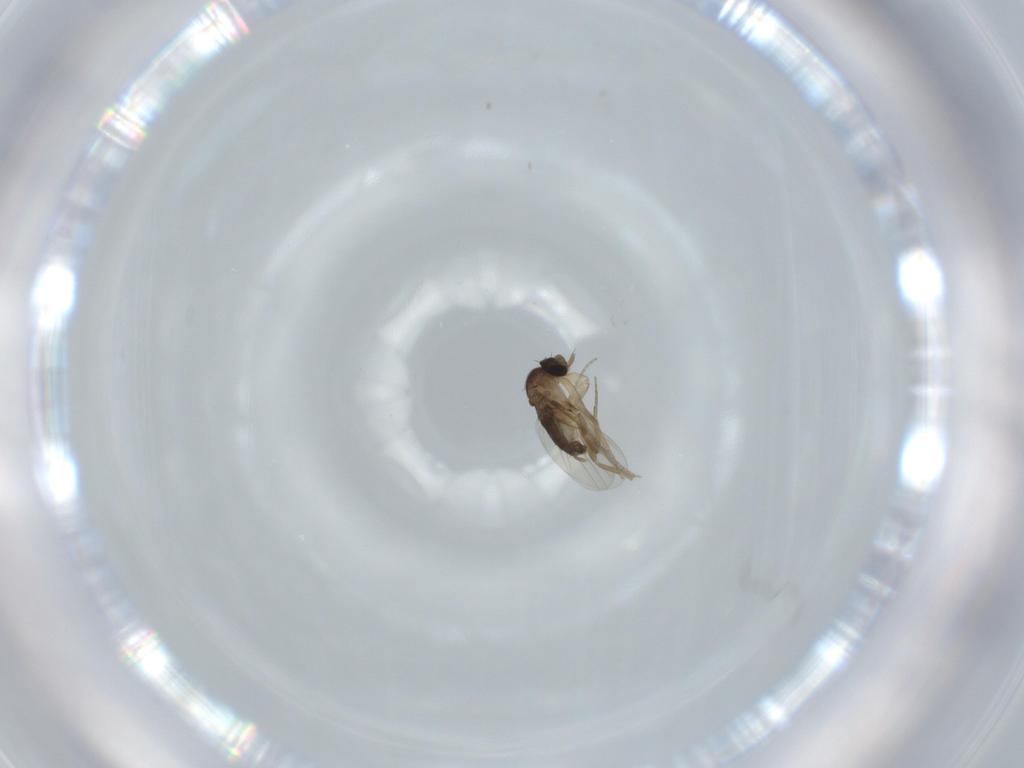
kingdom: Animalia
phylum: Arthropoda
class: Insecta
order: Diptera
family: Phoridae
